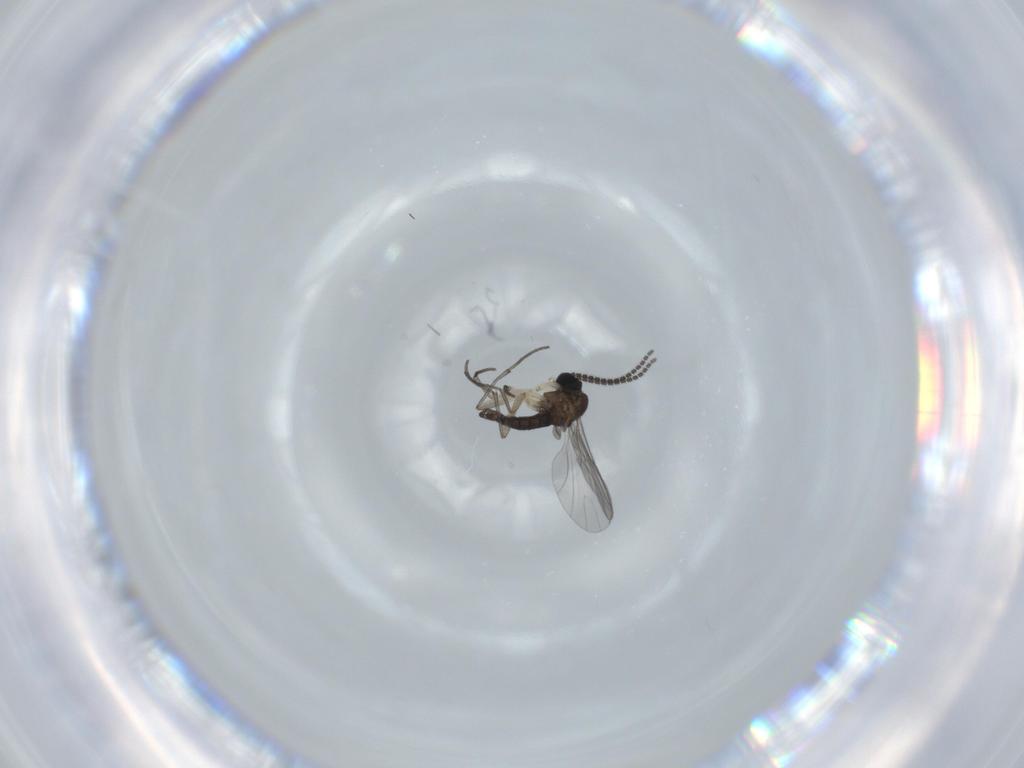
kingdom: Animalia
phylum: Arthropoda
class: Insecta
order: Diptera
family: Sciaridae
